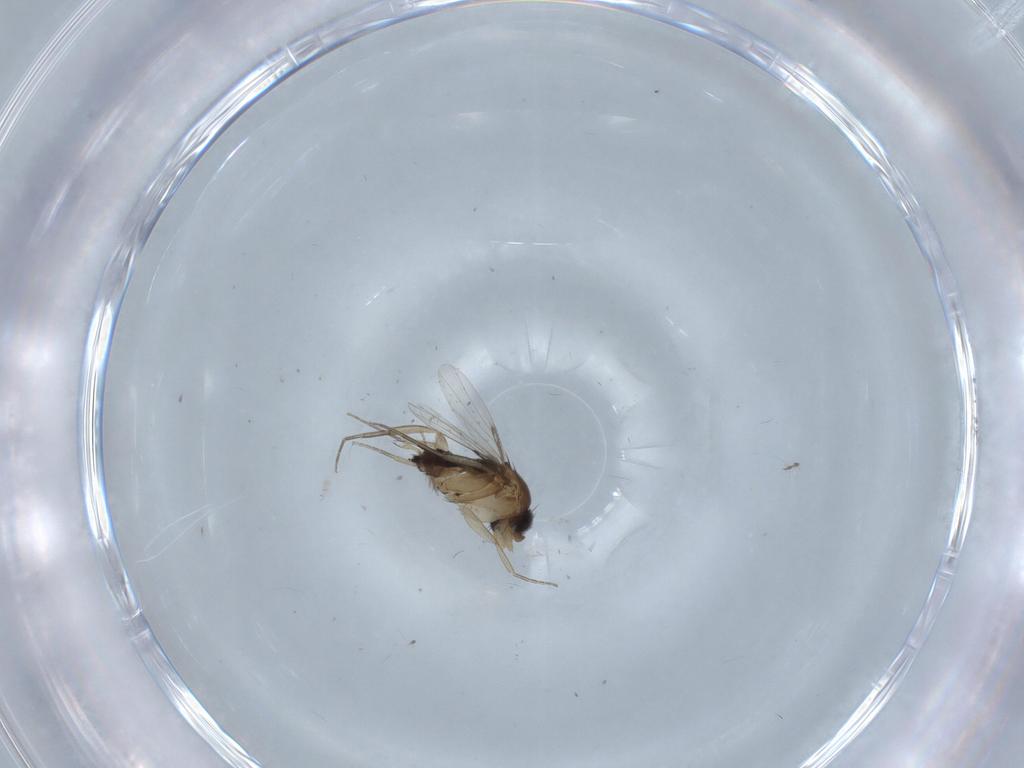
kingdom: Animalia
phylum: Arthropoda
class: Insecta
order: Diptera
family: Chironomidae
